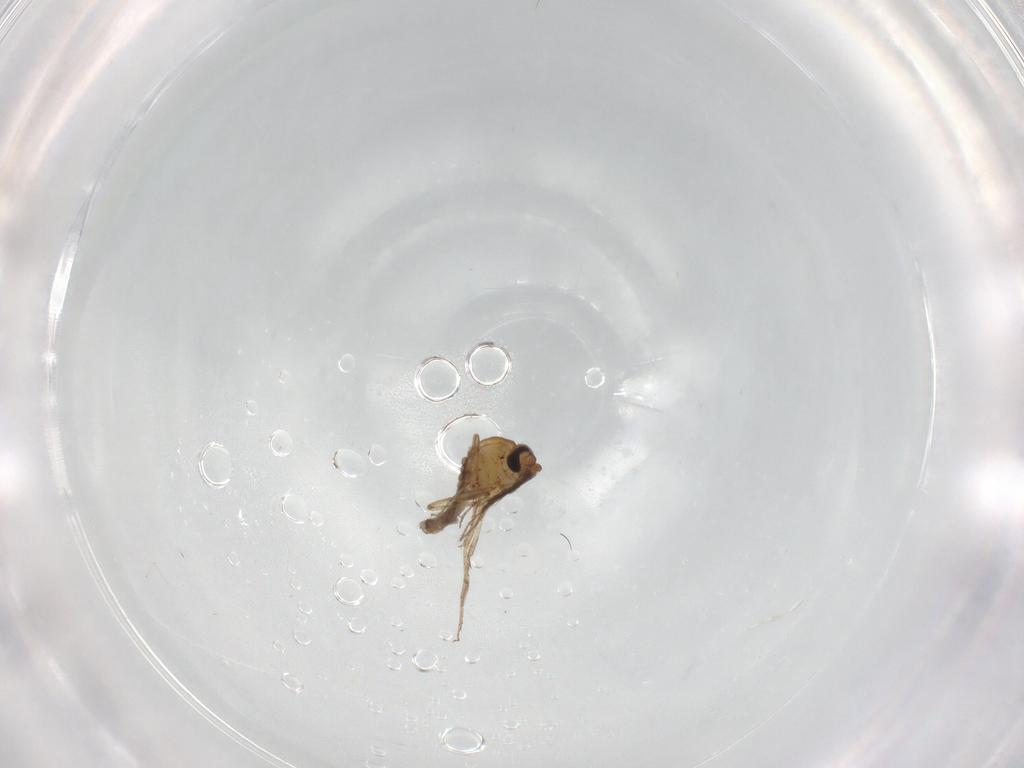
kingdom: Animalia
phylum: Arthropoda
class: Insecta
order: Diptera
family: Ceratopogonidae
